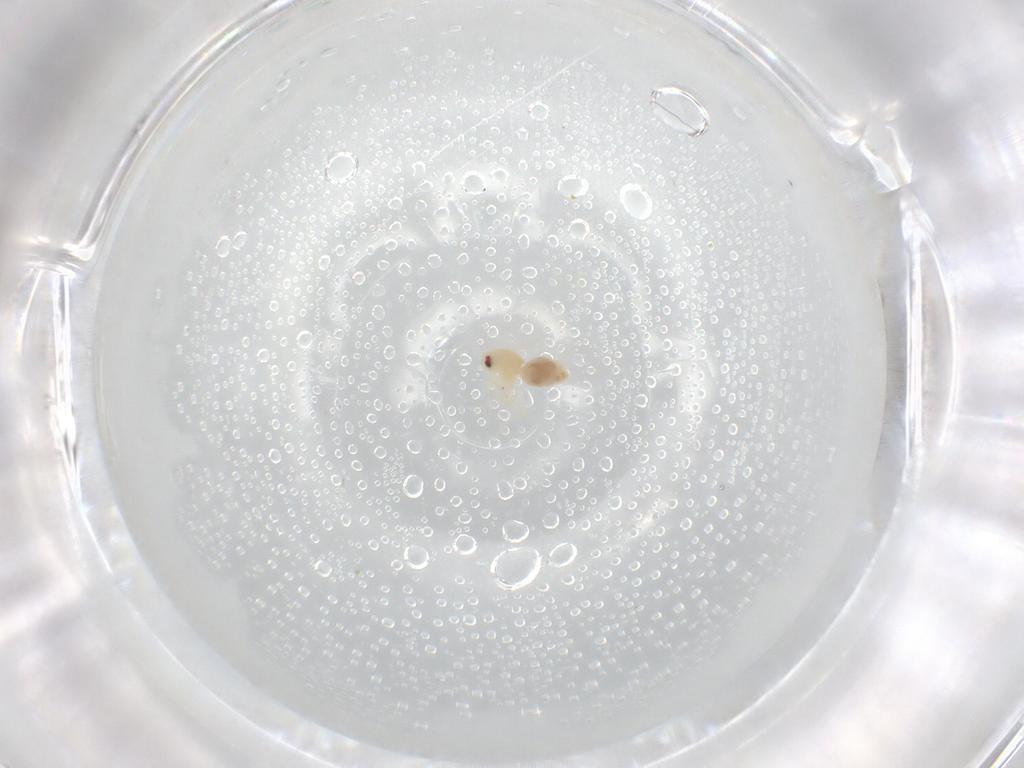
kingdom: Animalia
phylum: Arthropoda
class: Insecta
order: Hemiptera
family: Aleyrodidae
